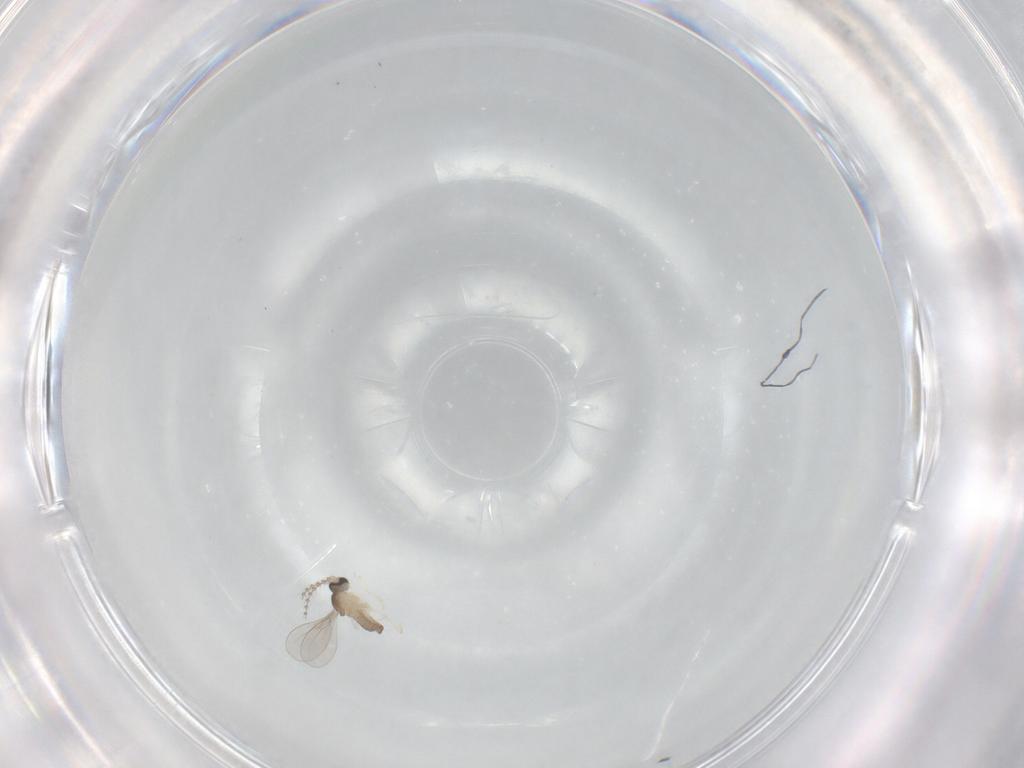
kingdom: Animalia
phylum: Arthropoda
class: Insecta
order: Diptera
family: Cecidomyiidae
